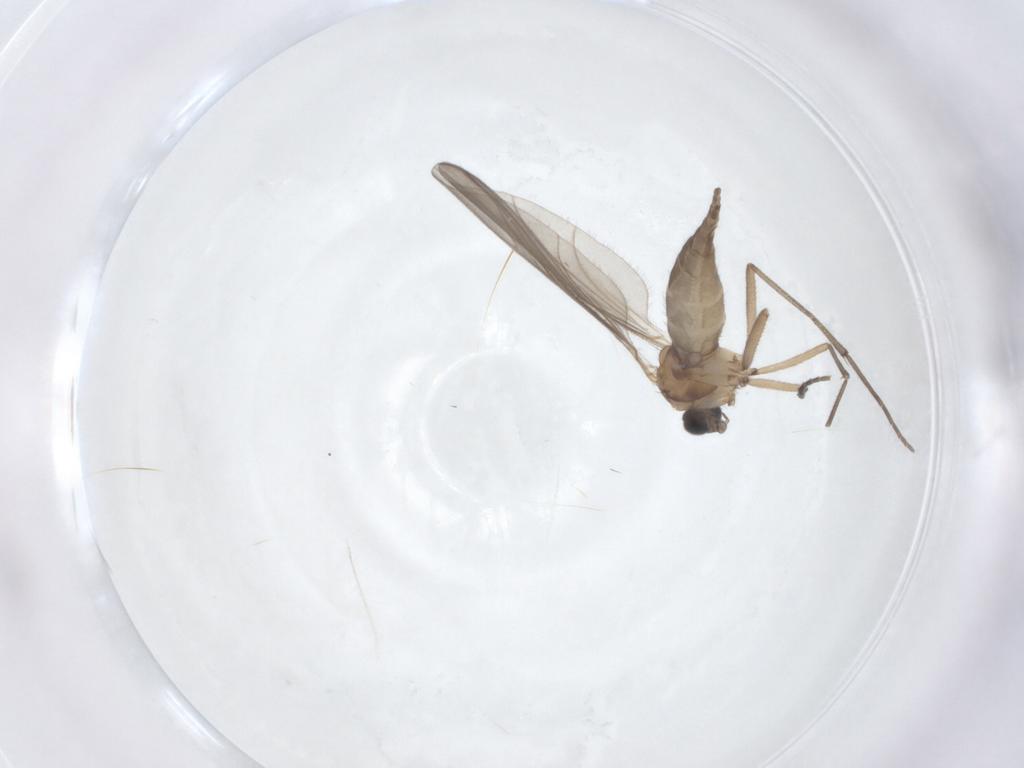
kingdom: Animalia
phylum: Arthropoda
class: Insecta
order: Diptera
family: Sciaridae
